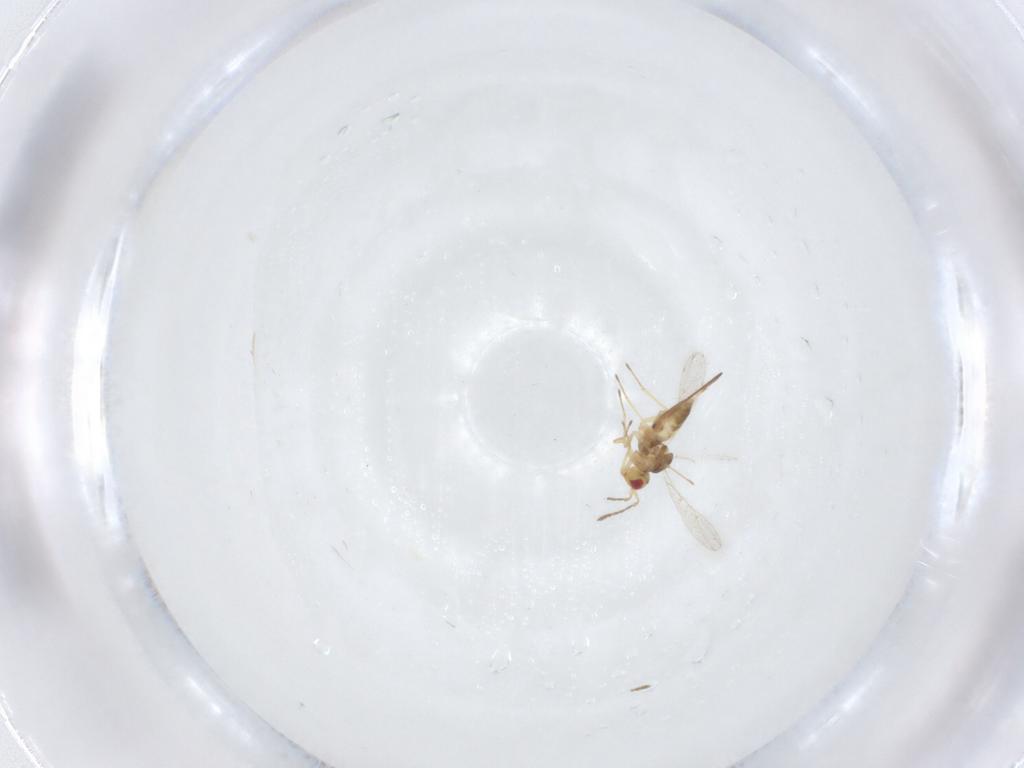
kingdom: Animalia
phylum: Arthropoda
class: Insecta
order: Hymenoptera
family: Eulophidae
